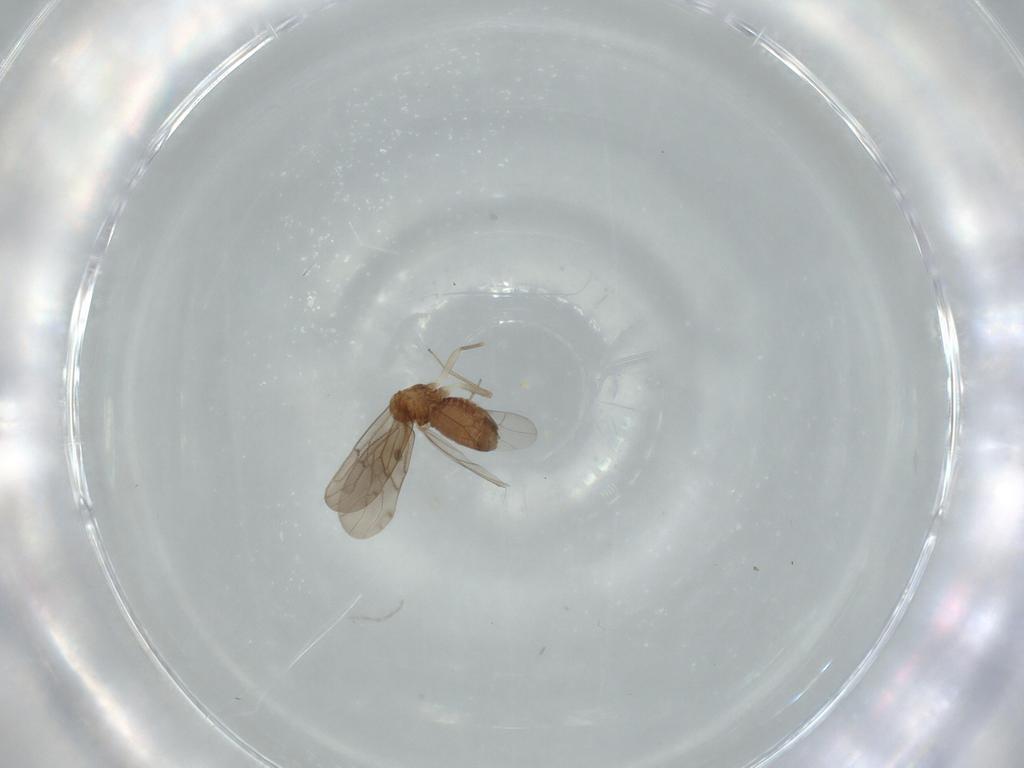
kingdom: Animalia
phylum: Arthropoda
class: Insecta
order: Psocodea
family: Ectopsocidae
